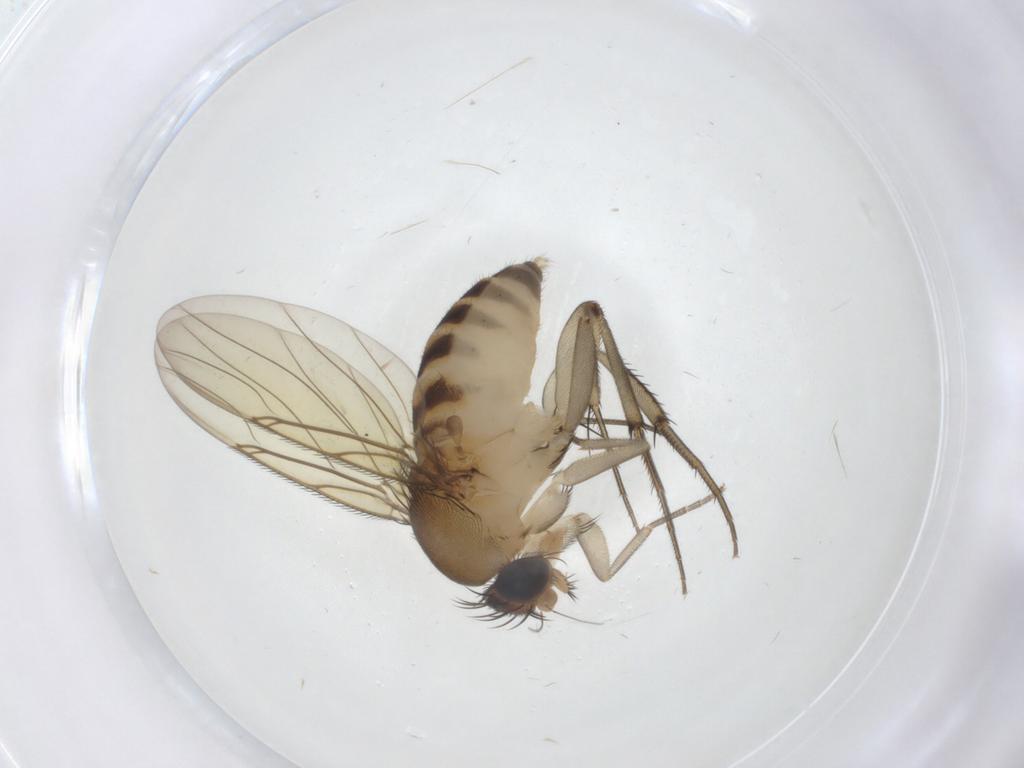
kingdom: Animalia
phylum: Arthropoda
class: Insecta
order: Diptera
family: Phoridae
